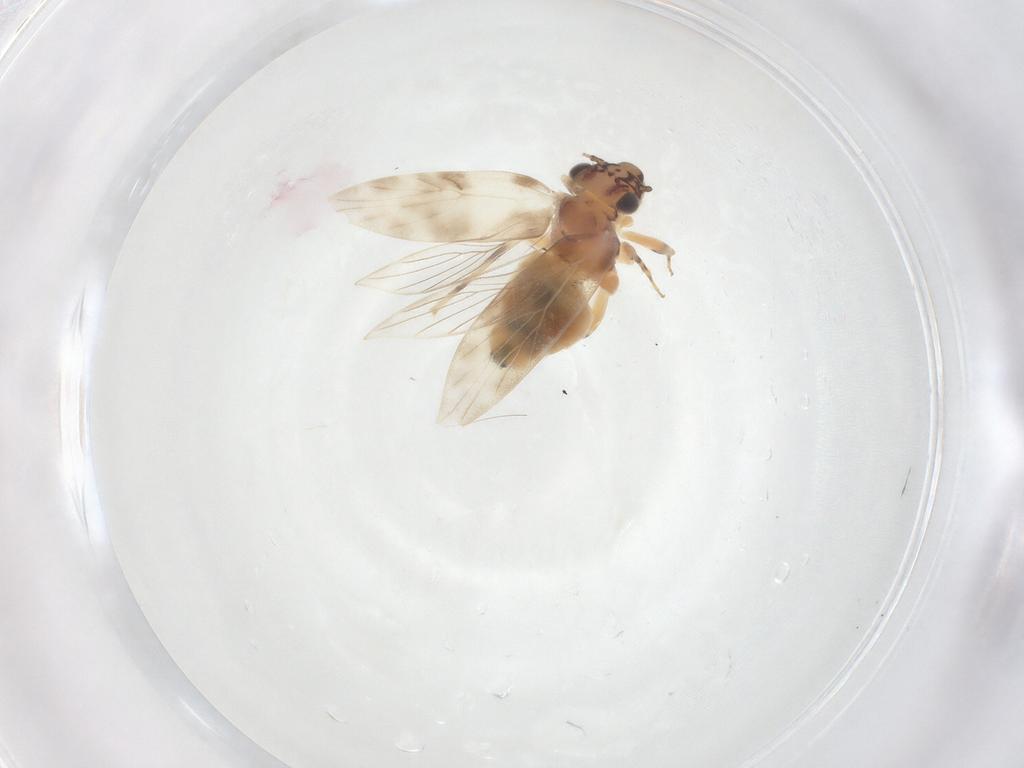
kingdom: Animalia
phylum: Arthropoda
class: Insecta
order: Psocodea
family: Lepidopsocidae
